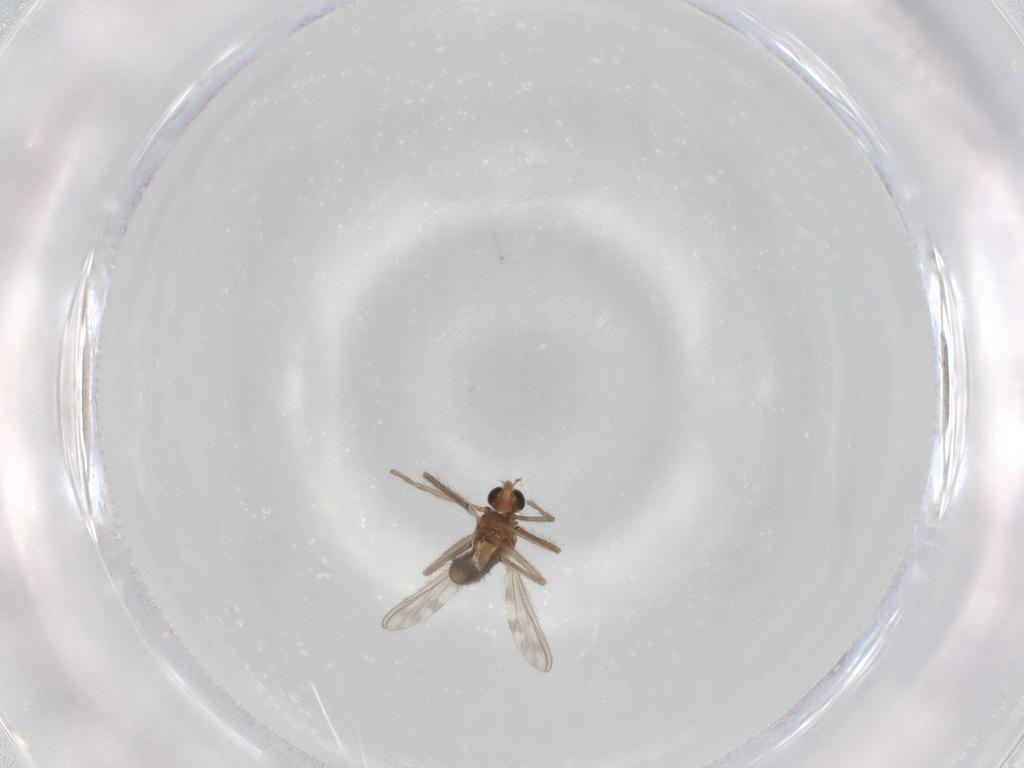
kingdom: Animalia
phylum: Arthropoda
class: Insecta
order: Diptera
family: Chironomidae
